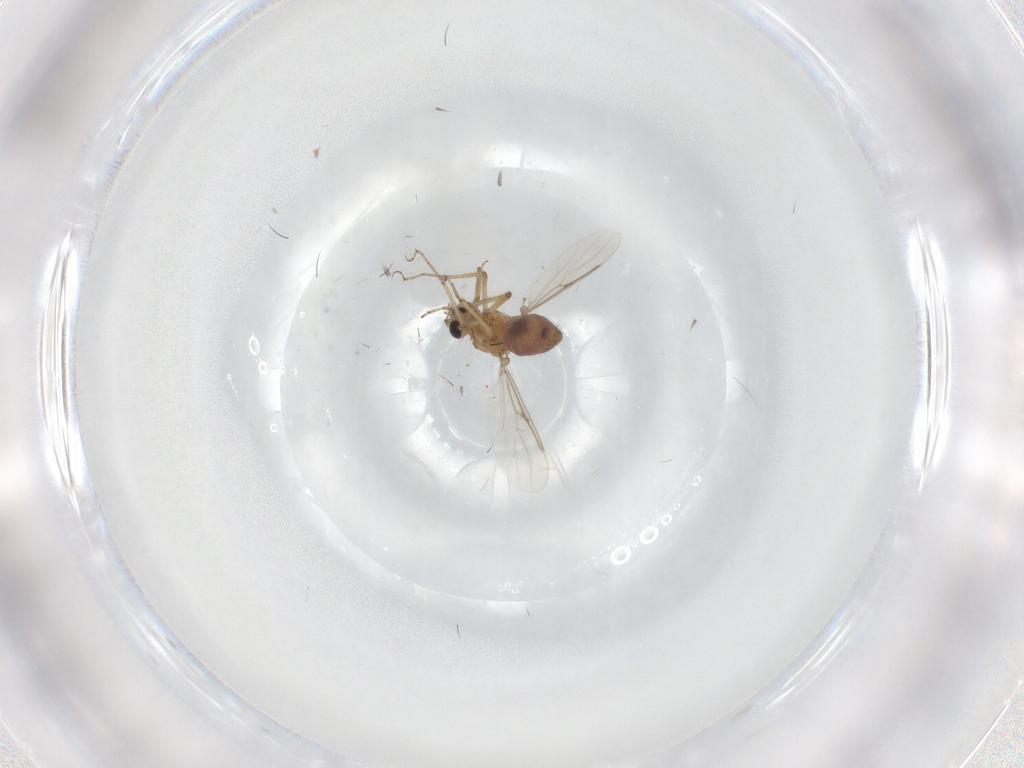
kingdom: Animalia
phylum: Arthropoda
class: Insecta
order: Diptera
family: Cecidomyiidae
